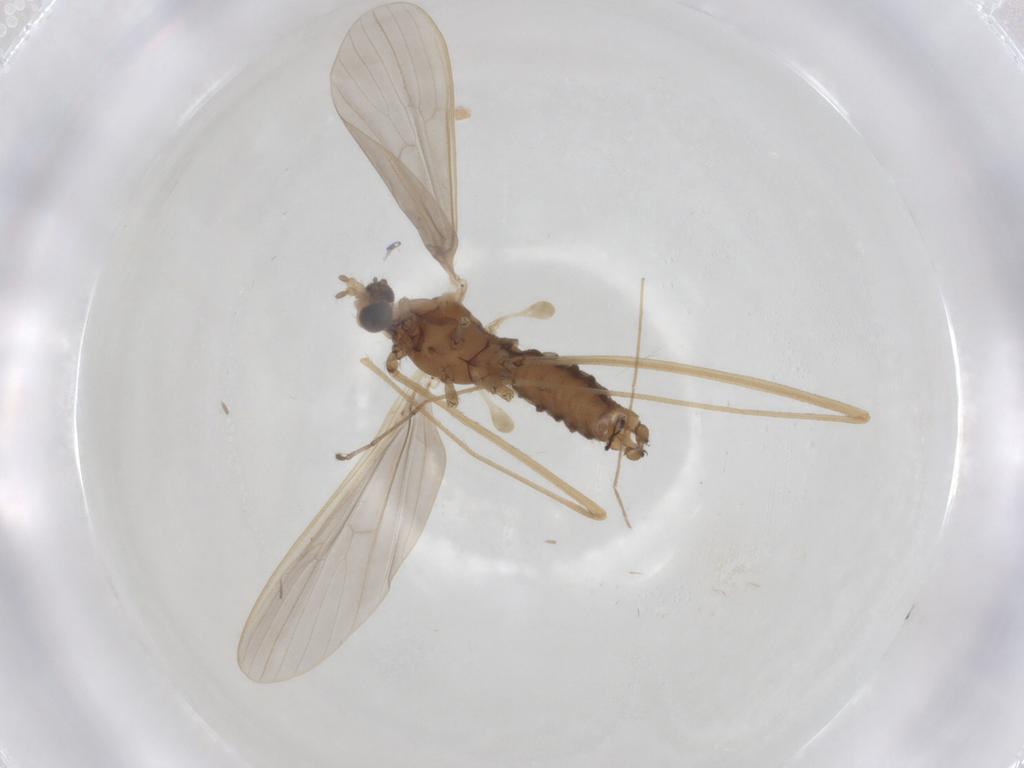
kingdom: Animalia
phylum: Arthropoda
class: Insecta
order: Diptera
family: Limoniidae
